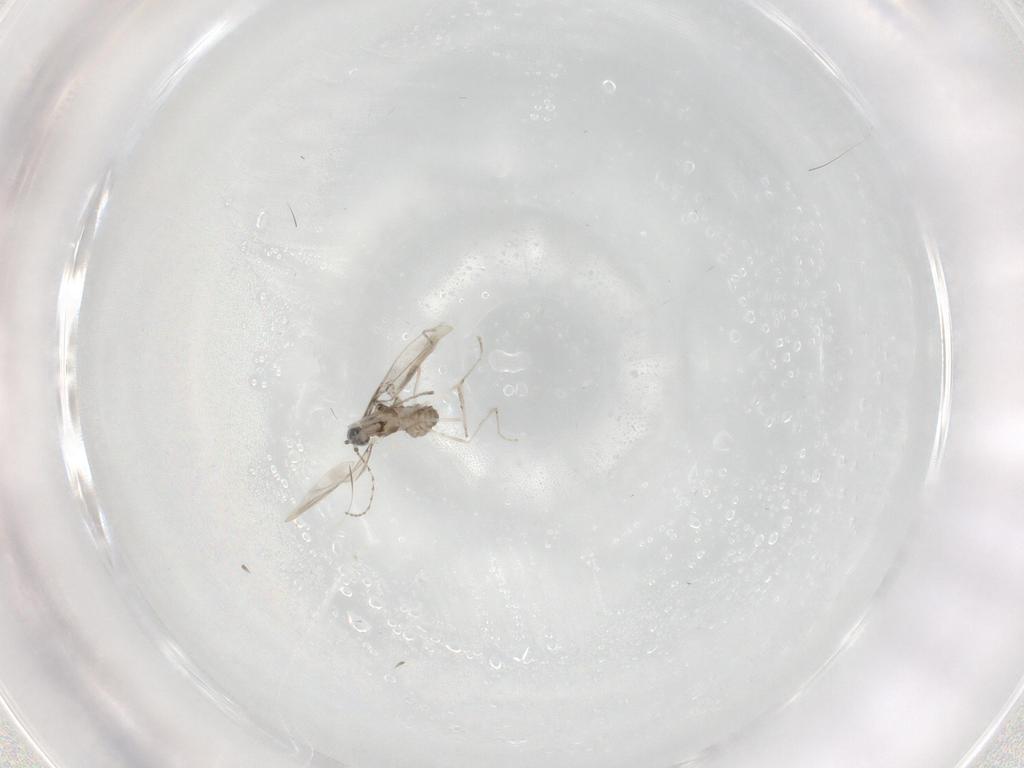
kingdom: Animalia
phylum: Arthropoda
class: Insecta
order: Diptera
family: Cecidomyiidae
